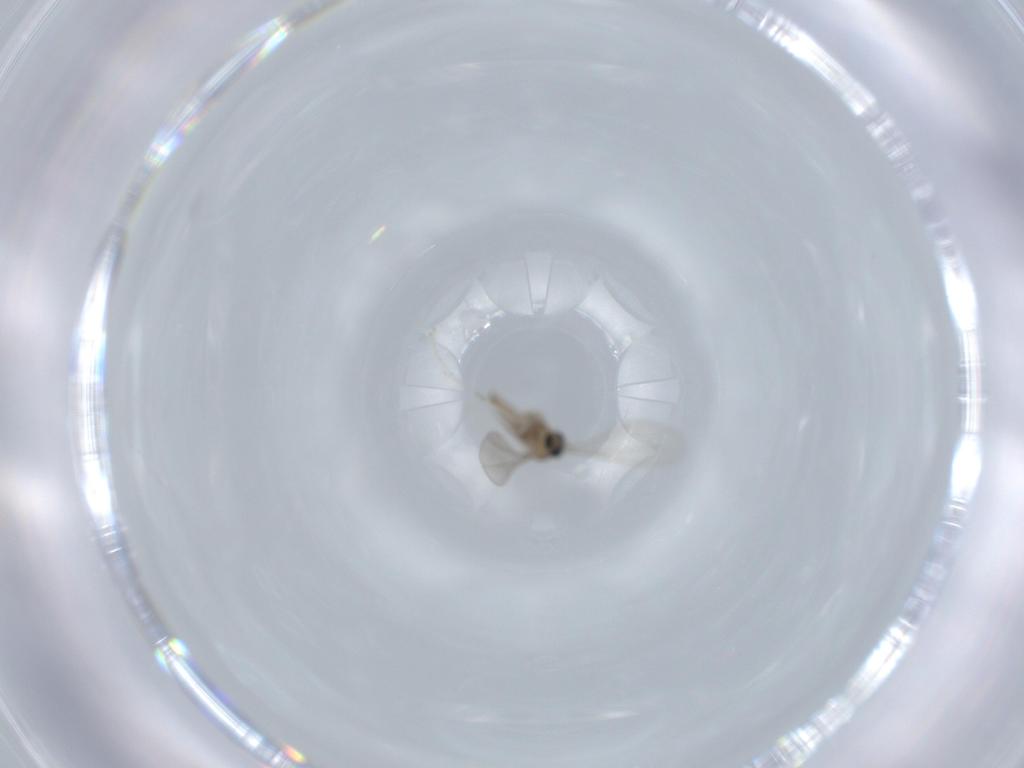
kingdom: Animalia
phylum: Arthropoda
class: Insecta
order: Diptera
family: Cecidomyiidae
